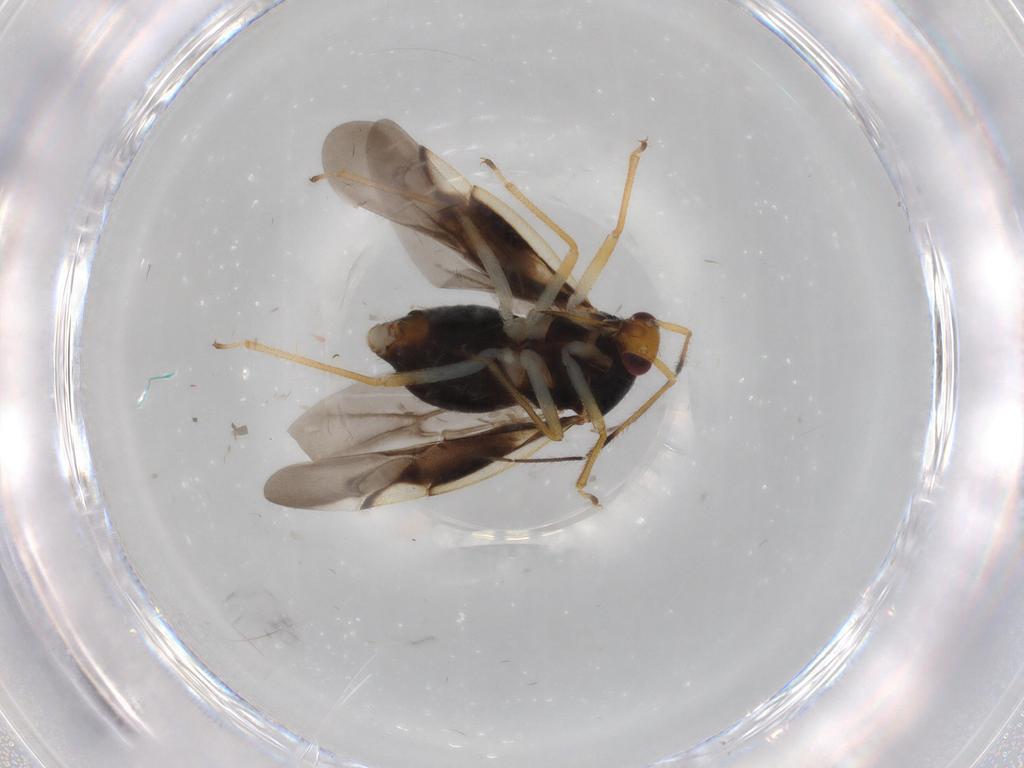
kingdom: Animalia
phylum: Arthropoda
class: Insecta
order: Hemiptera
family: Miridae
